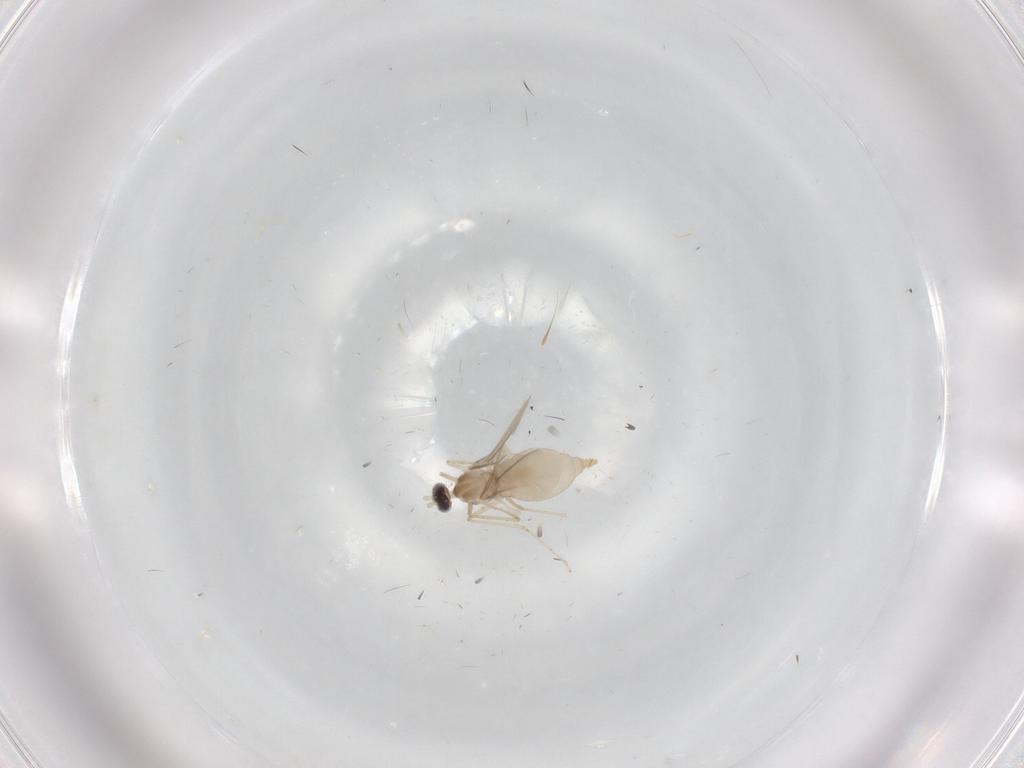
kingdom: Animalia
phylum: Arthropoda
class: Insecta
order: Diptera
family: Cecidomyiidae
